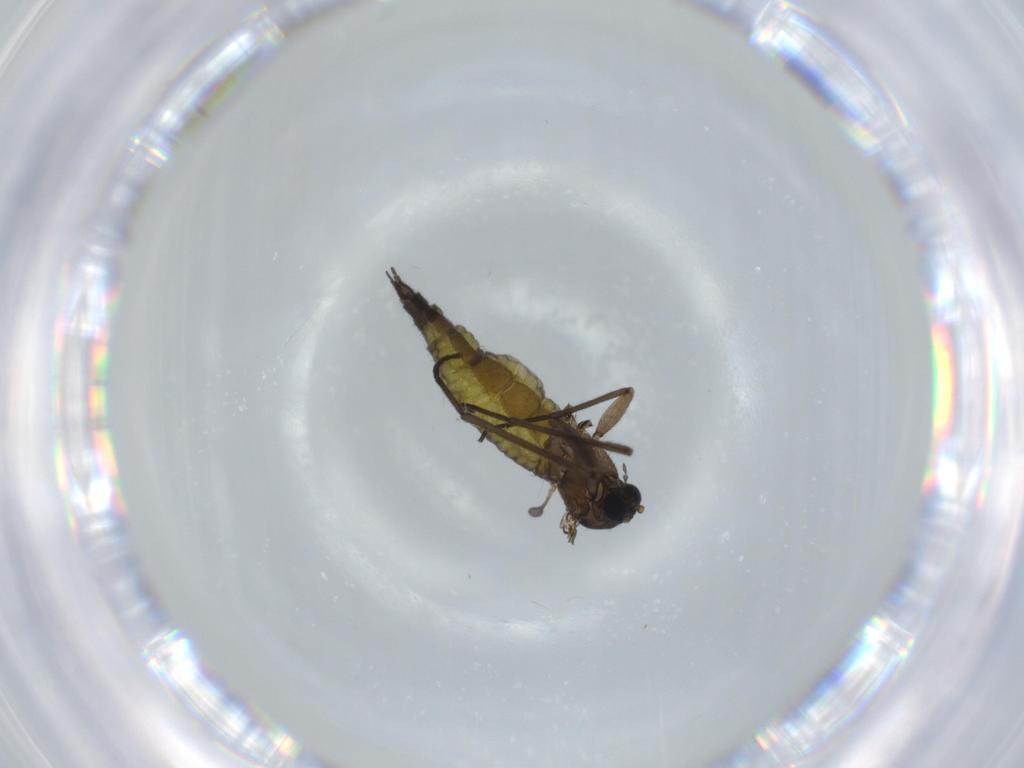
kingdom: Animalia
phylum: Arthropoda
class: Insecta
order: Diptera
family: Sciaridae
